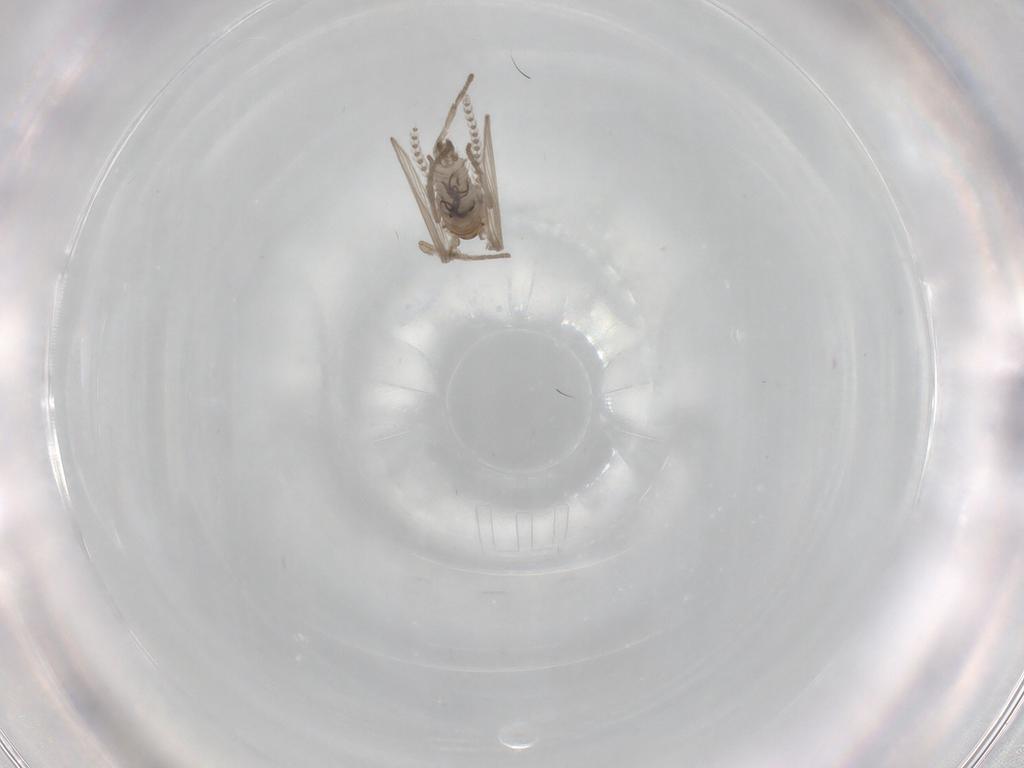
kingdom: Animalia
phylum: Arthropoda
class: Insecta
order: Diptera
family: Psychodidae
